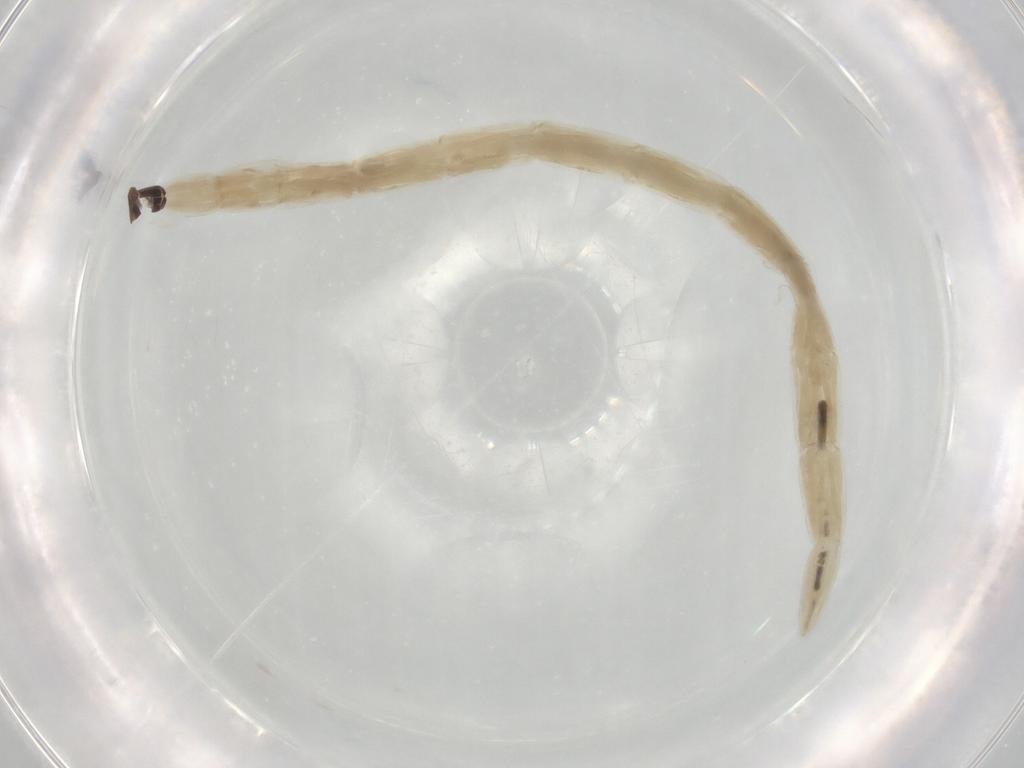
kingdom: Animalia
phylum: Arthropoda
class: Insecta
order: Diptera
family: Ceratopogonidae
